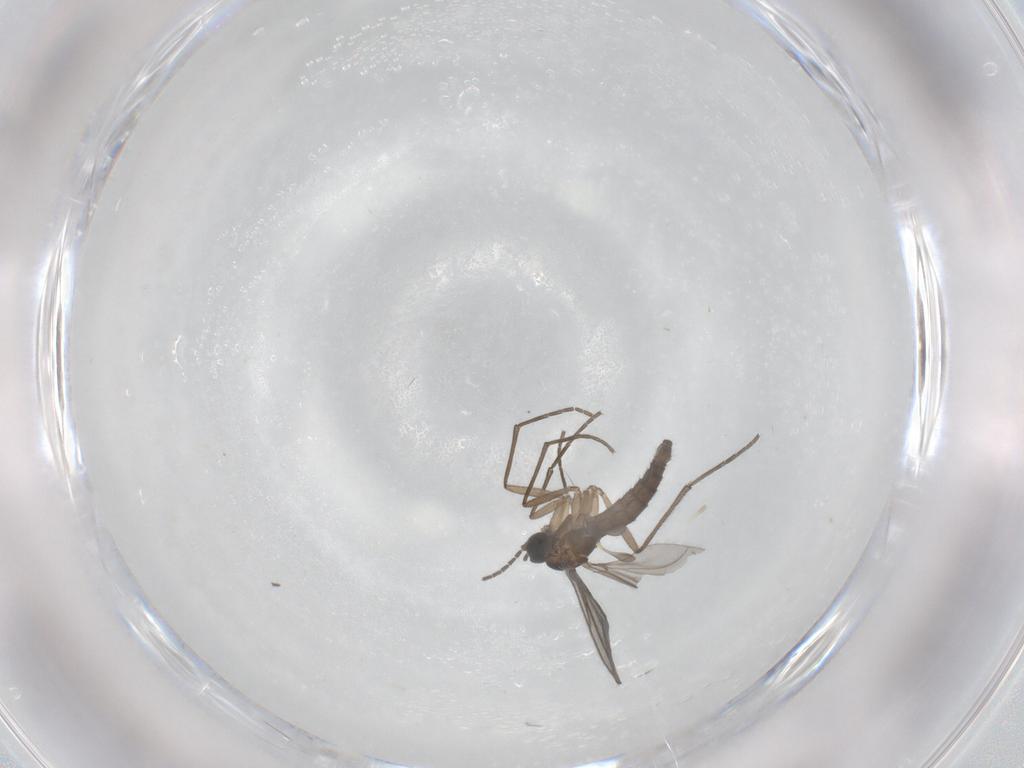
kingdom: Animalia
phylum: Arthropoda
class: Insecta
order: Diptera
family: Sciaridae
